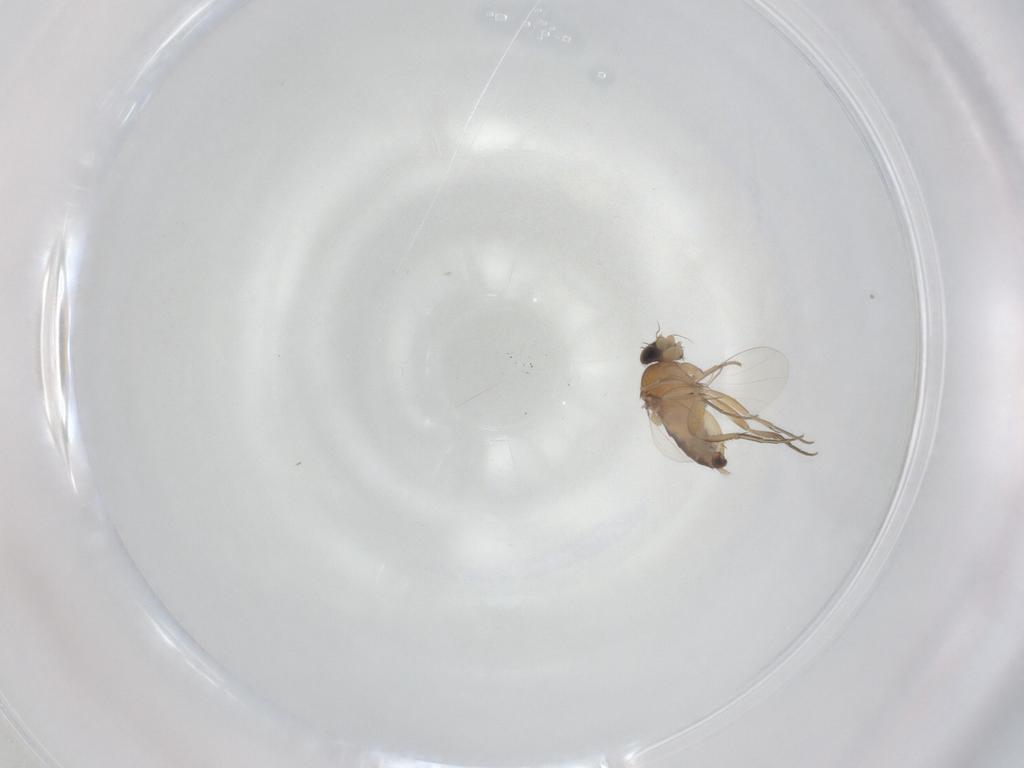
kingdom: Animalia
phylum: Arthropoda
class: Insecta
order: Diptera
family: Phoridae
